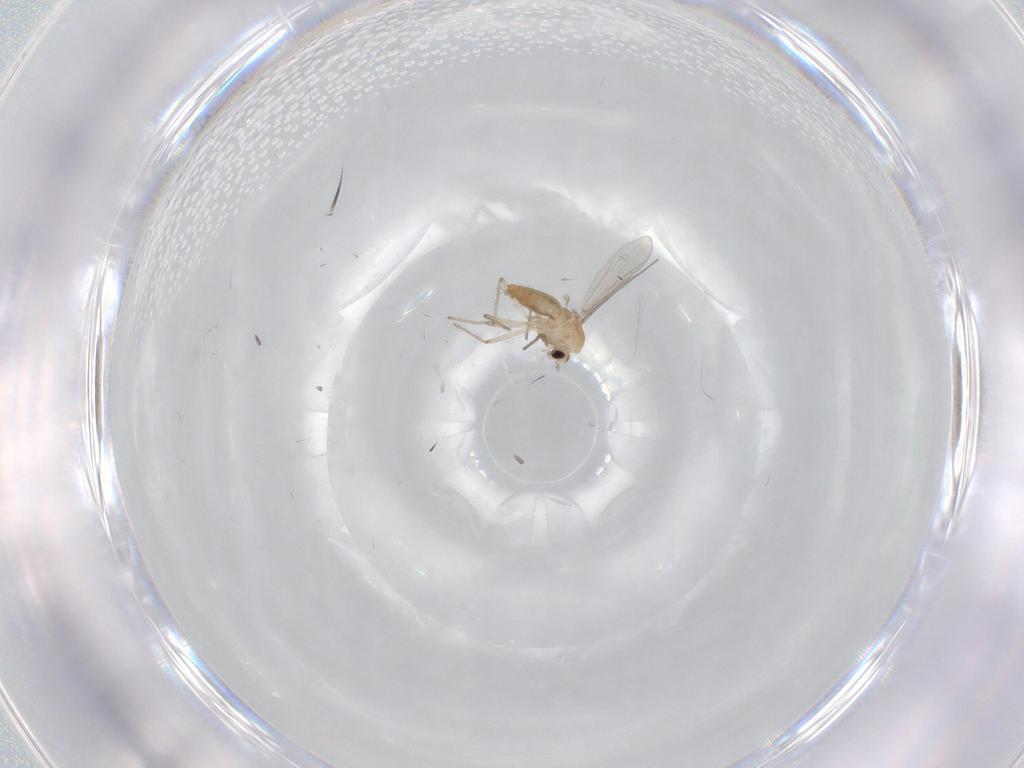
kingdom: Animalia
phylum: Arthropoda
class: Insecta
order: Diptera
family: Chironomidae
